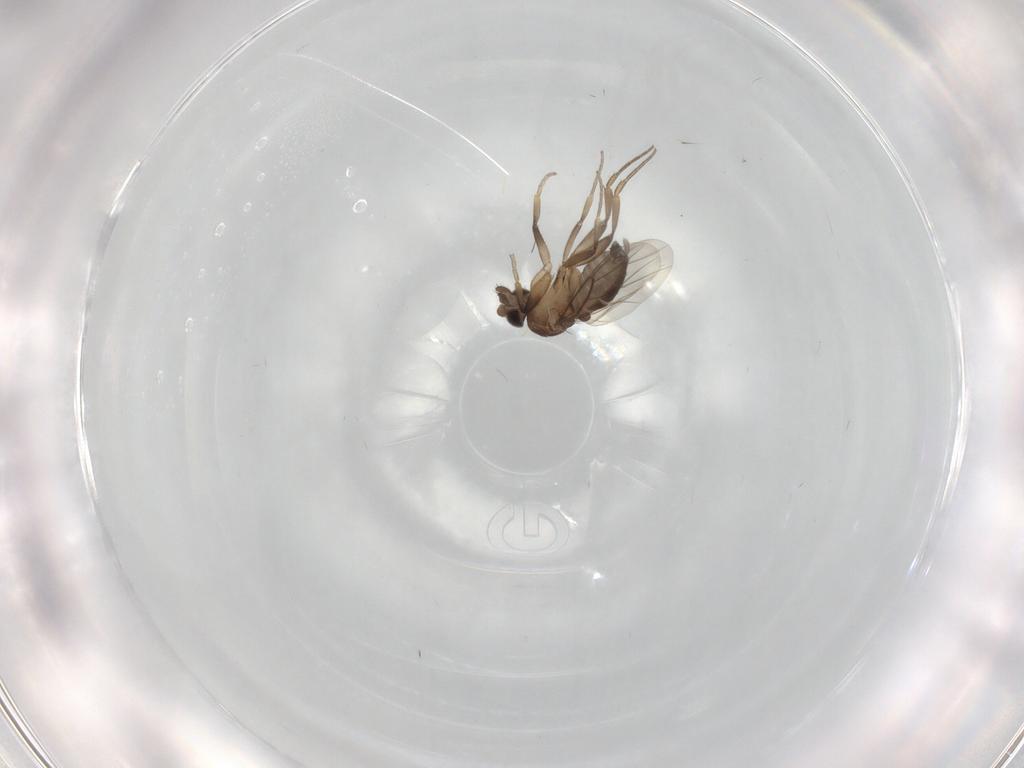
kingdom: Animalia
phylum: Arthropoda
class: Insecta
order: Diptera
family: Phoridae
